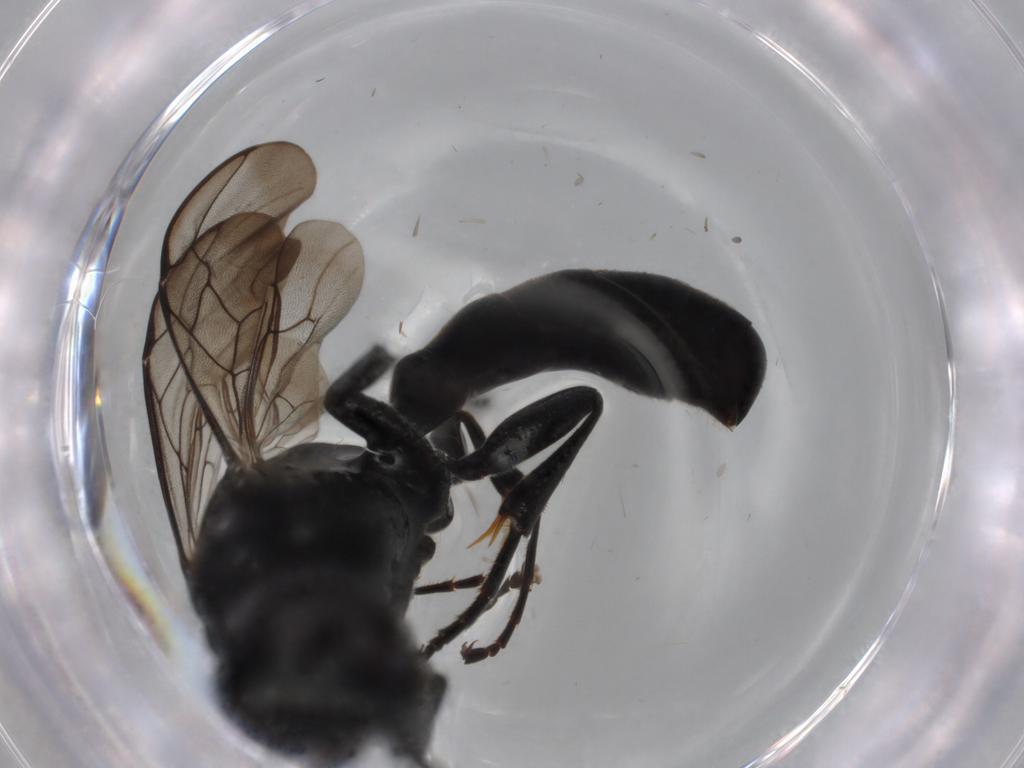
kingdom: Animalia
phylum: Arthropoda
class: Insecta
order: Hymenoptera
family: Crabronidae
